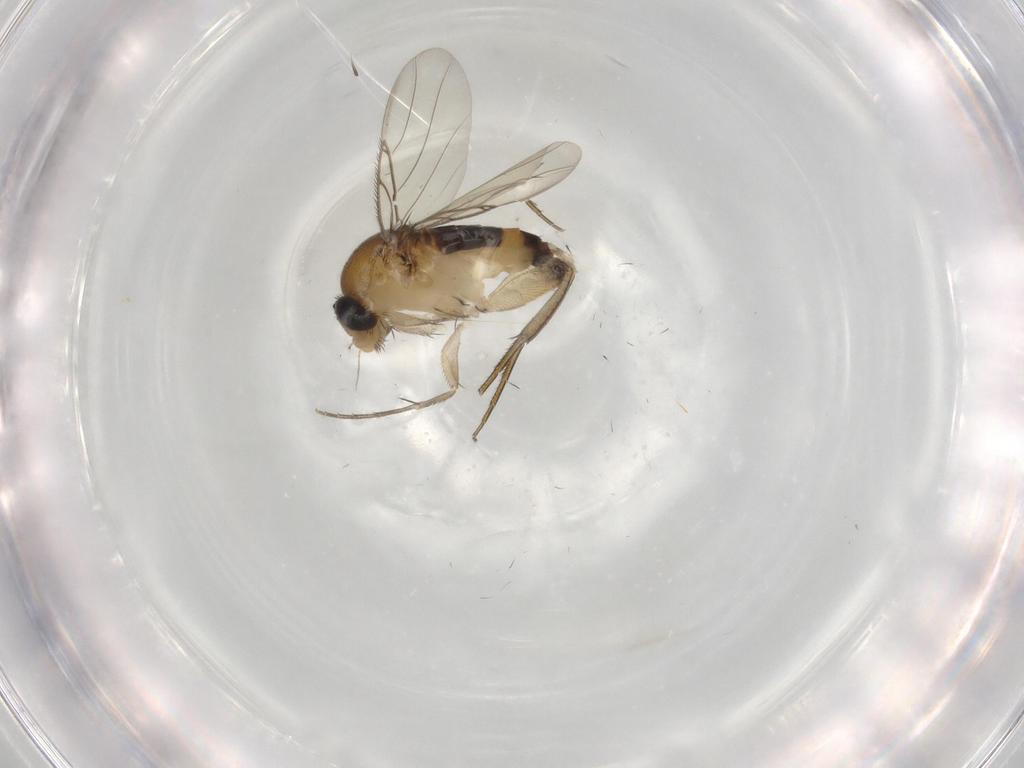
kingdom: Animalia
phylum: Arthropoda
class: Insecta
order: Diptera
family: Phoridae
